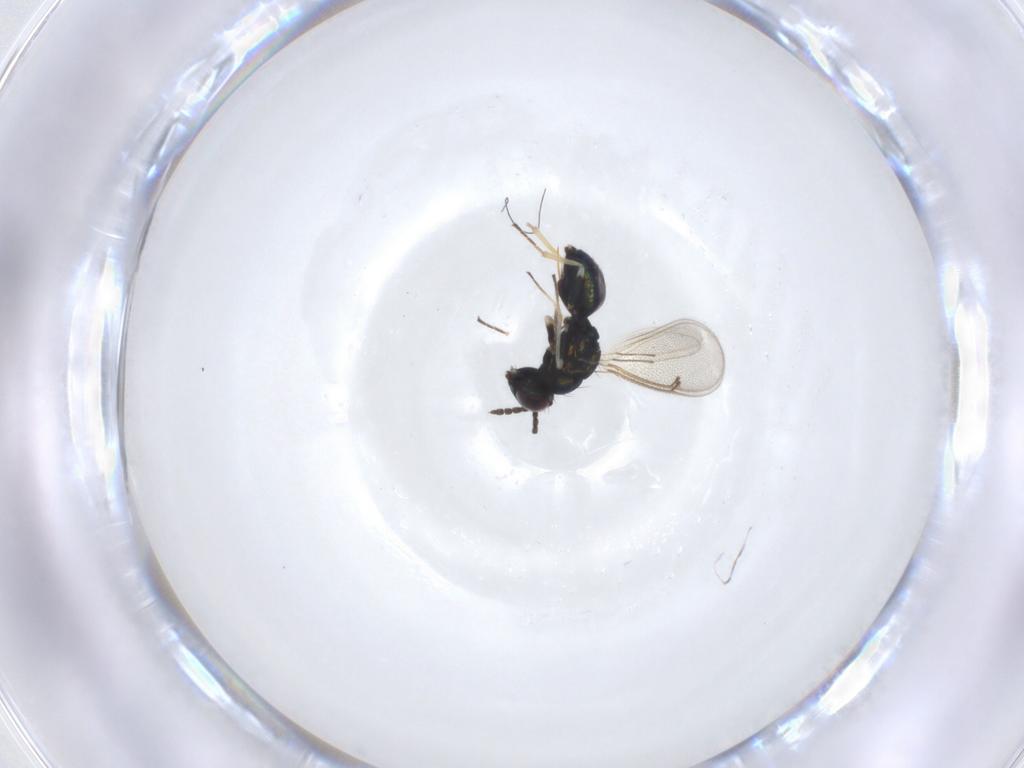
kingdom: Animalia
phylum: Arthropoda
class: Insecta
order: Hymenoptera
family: Eulophidae
